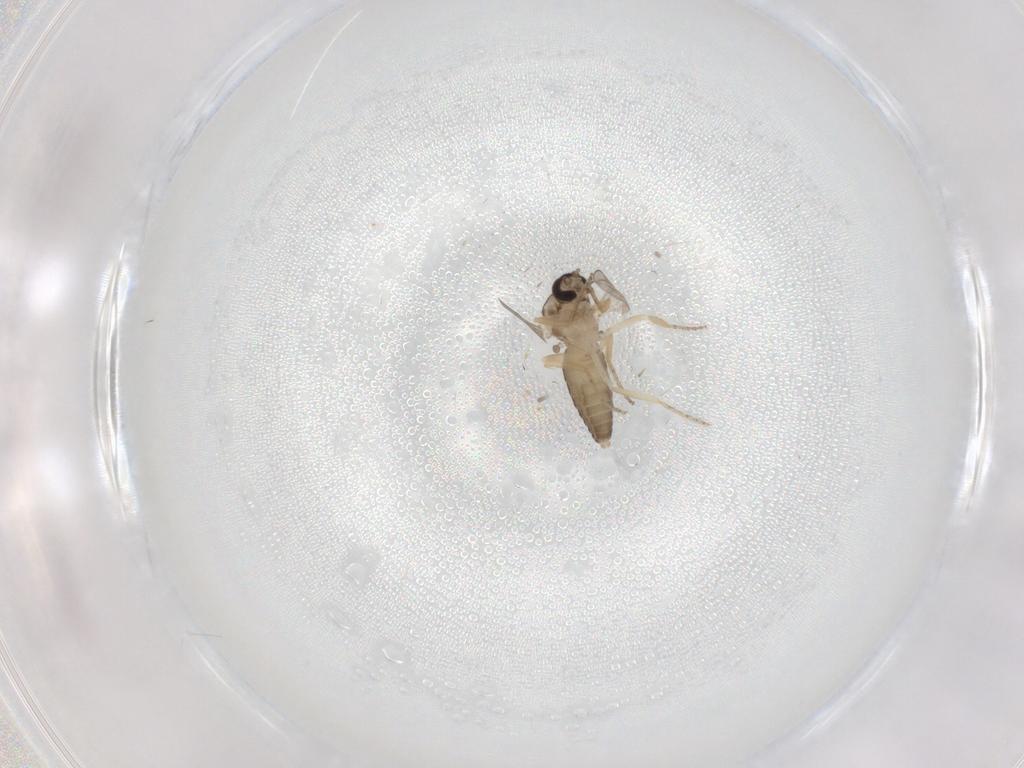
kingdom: Animalia
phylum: Arthropoda
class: Insecta
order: Diptera
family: Ceratopogonidae
